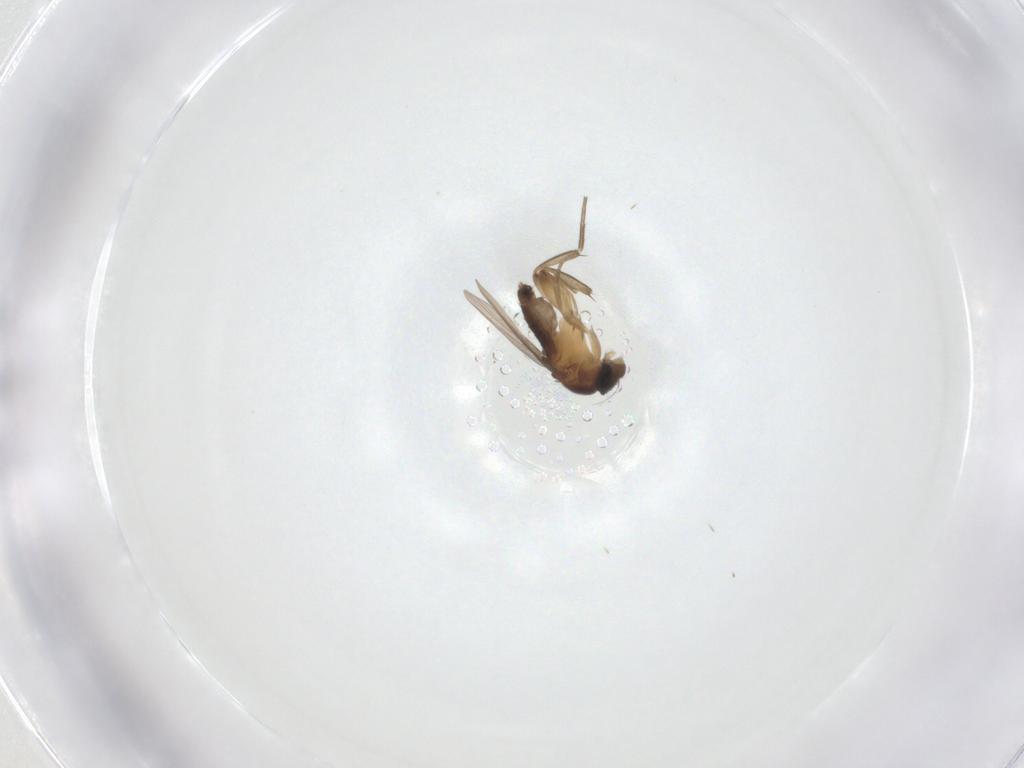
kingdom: Animalia
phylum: Arthropoda
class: Insecta
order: Diptera
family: Phoridae
